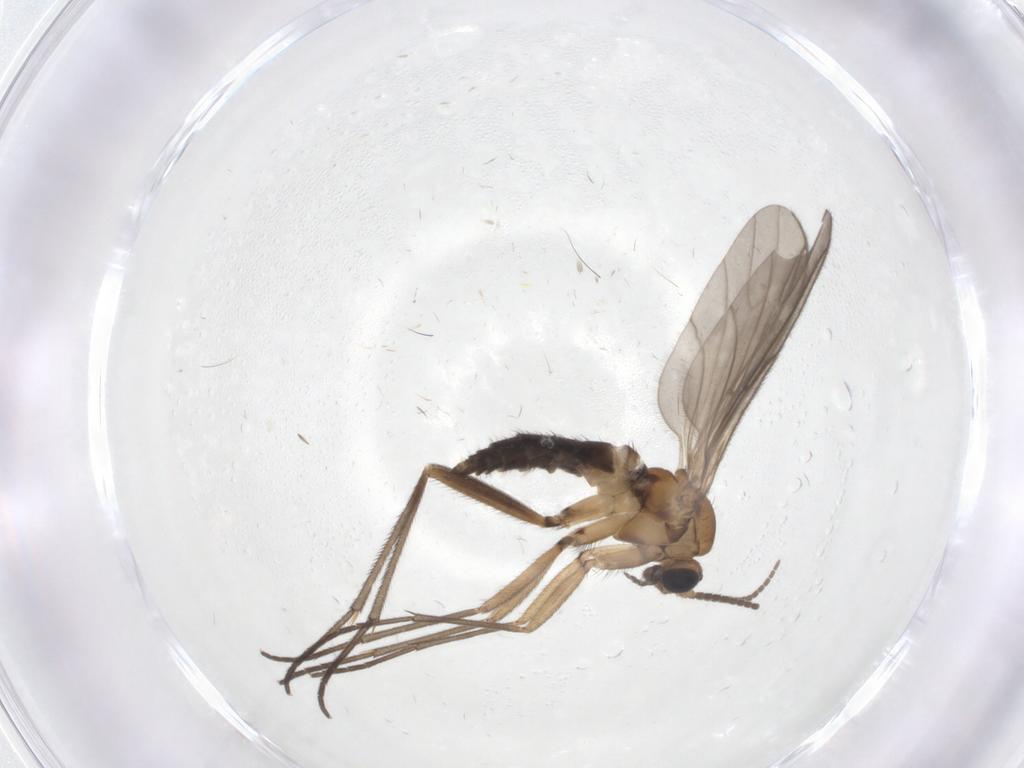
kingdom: Animalia
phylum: Arthropoda
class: Insecta
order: Diptera
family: Sciaridae
